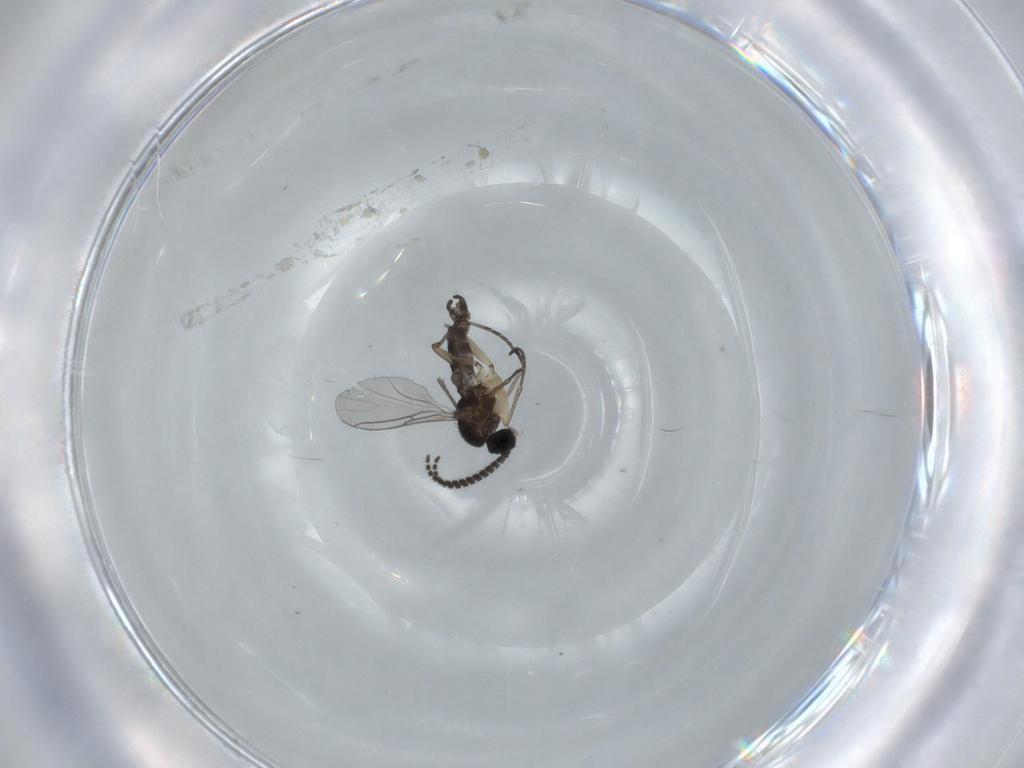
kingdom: Animalia
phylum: Arthropoda
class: Insecta
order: Diptera
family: Sciaridae
